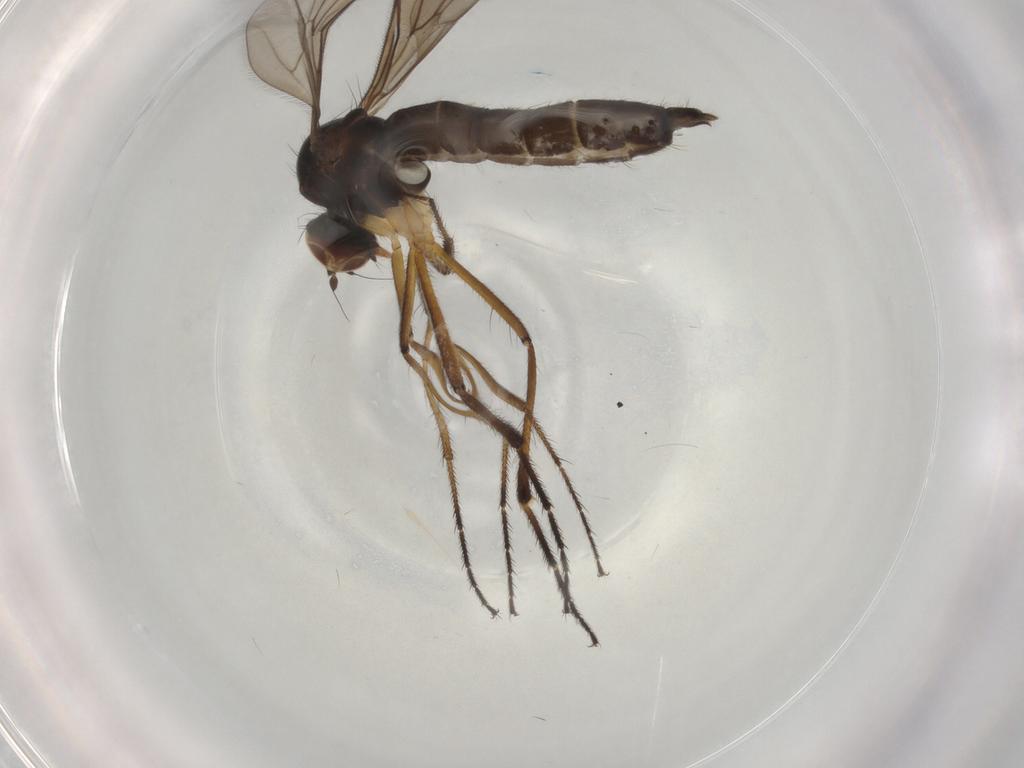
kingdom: Animalia
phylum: Arthropoda
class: Insecta
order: Diptera
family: Hybotidae
